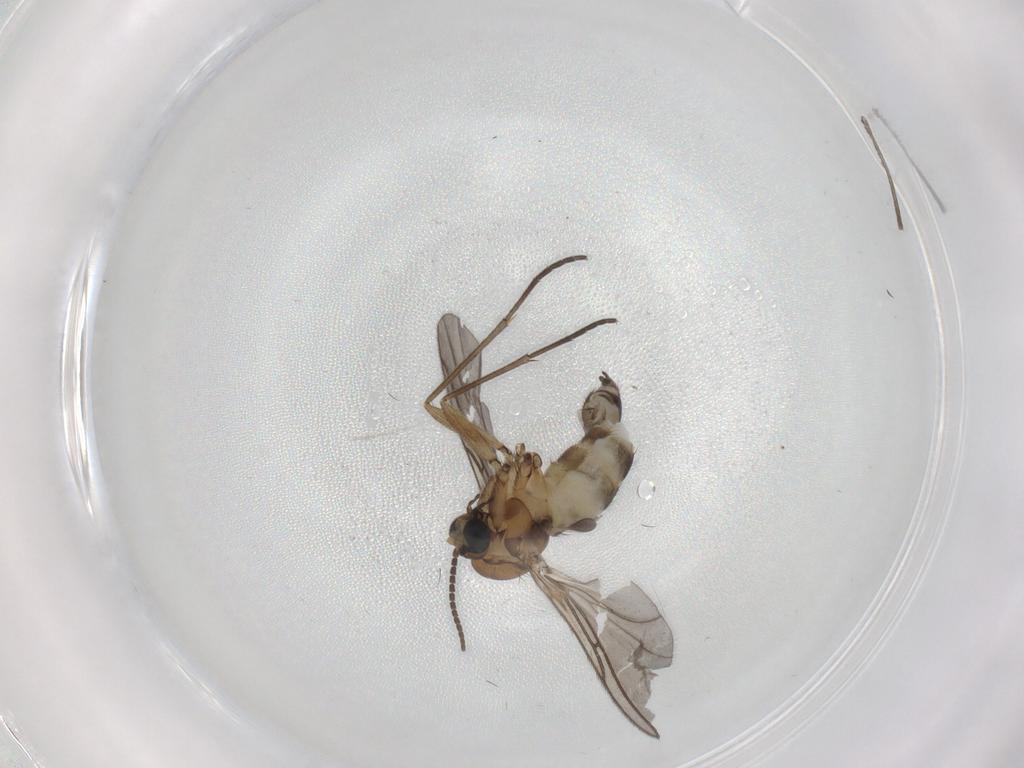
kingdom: Animalia
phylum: Arthropoda
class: Insecta
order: Diptera
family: Sciaridae
